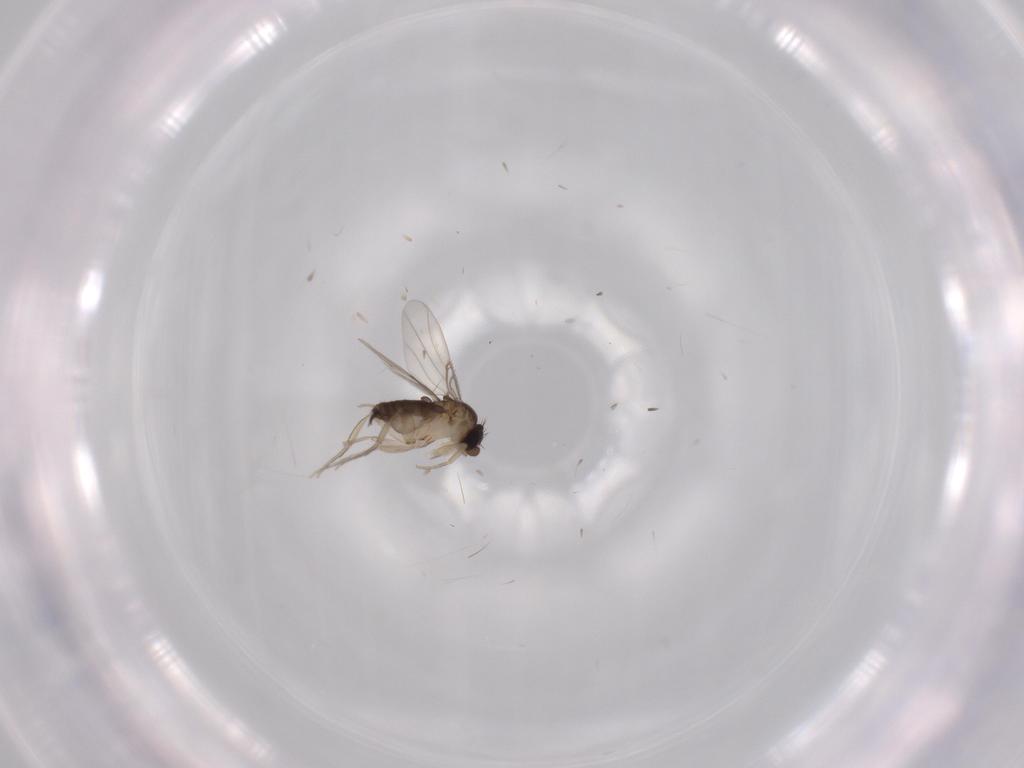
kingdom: Animalia
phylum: Arthropoda
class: Insecta
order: Diptera
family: Phoridae
